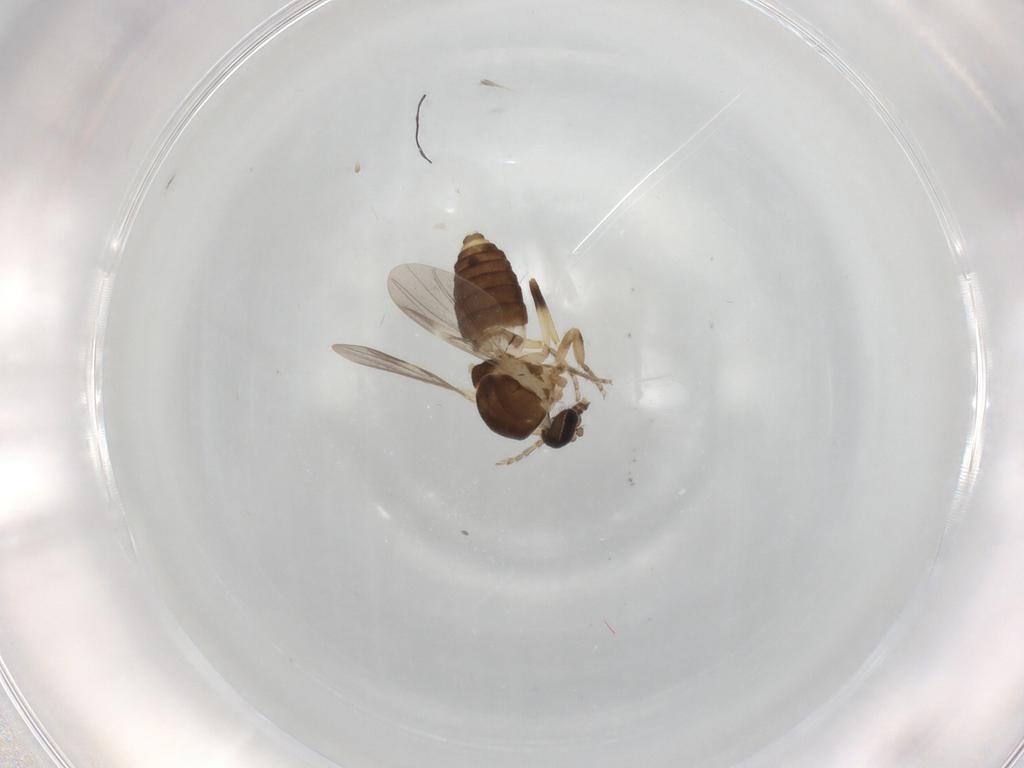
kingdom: Animalia
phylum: Arthropoda
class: Insecta
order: Diptera
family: Ceratopogonidae
